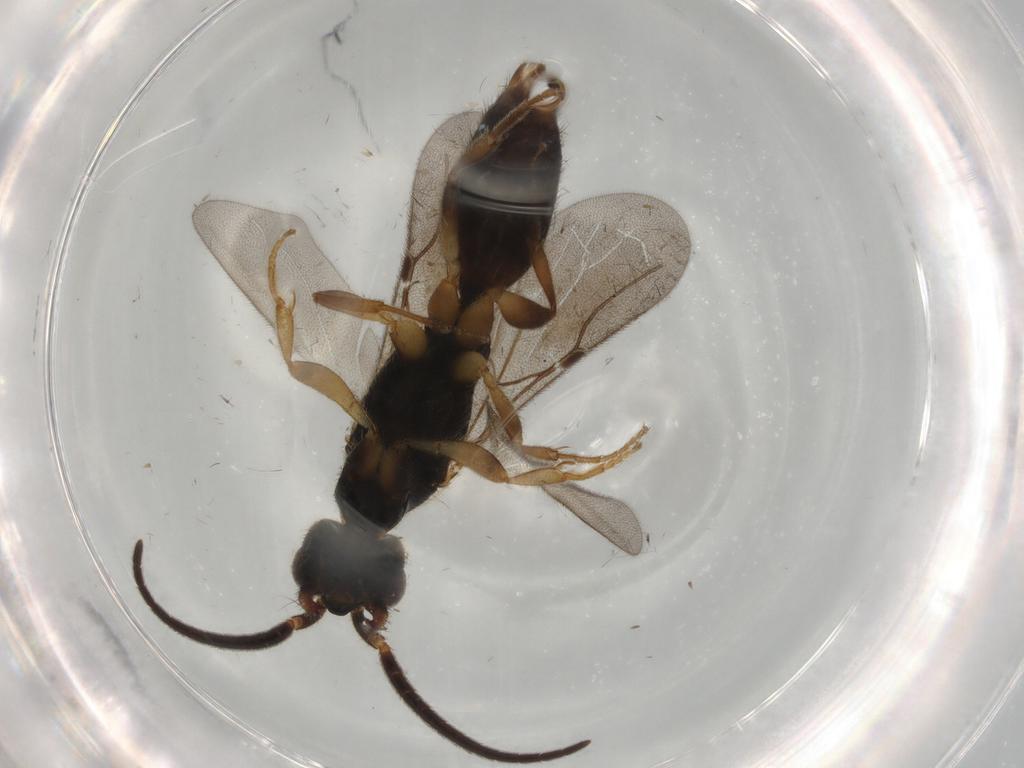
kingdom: Animalia
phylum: Arthropoda
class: Insecta
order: Hymenoptera
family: Bethylidae
